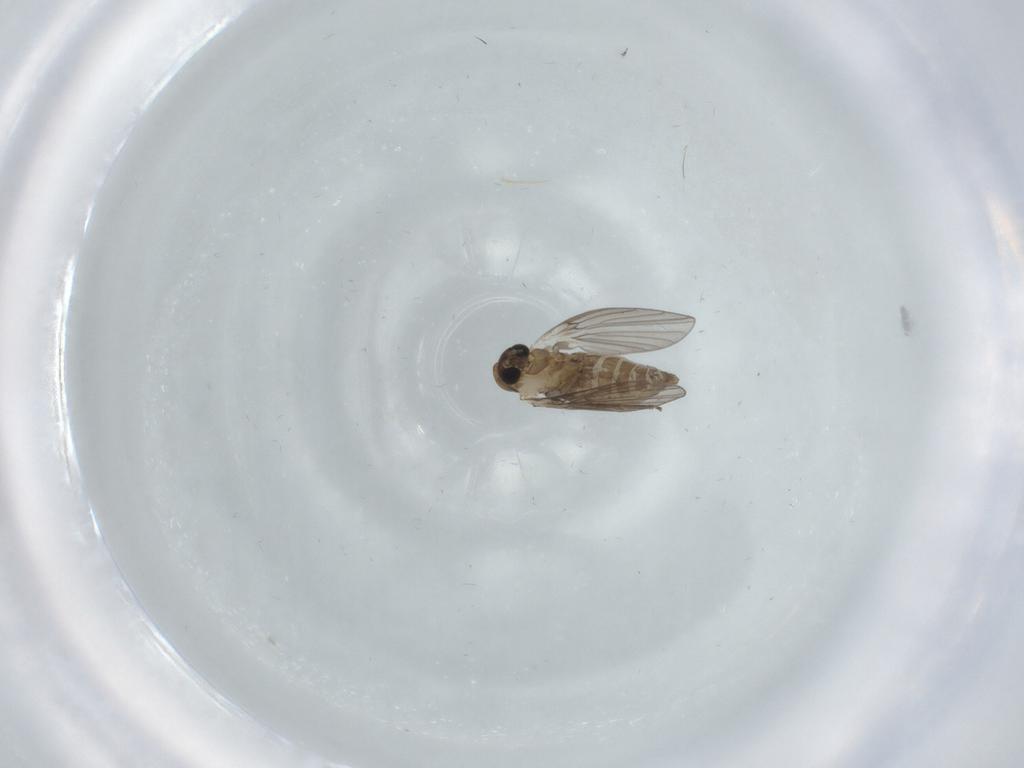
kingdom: Animalia
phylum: Arthropoda
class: Insecta
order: Diptera
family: Psychodidae
